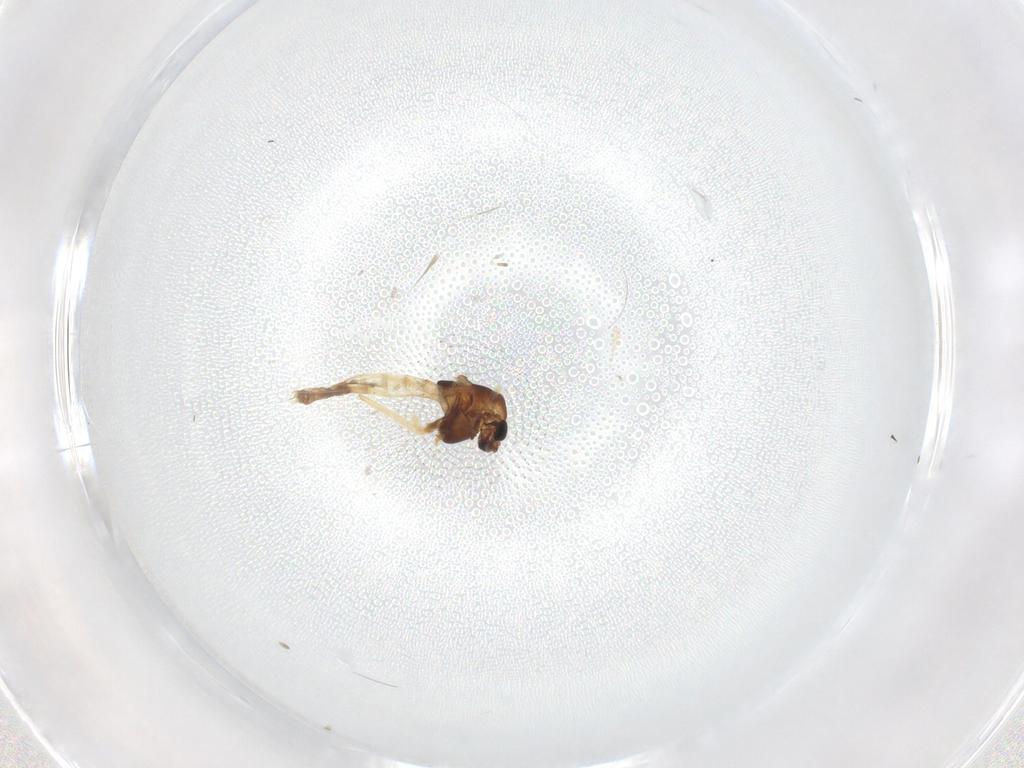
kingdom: Animalia
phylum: Arthropoda
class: Insecta
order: Diptera
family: Chironomidae
